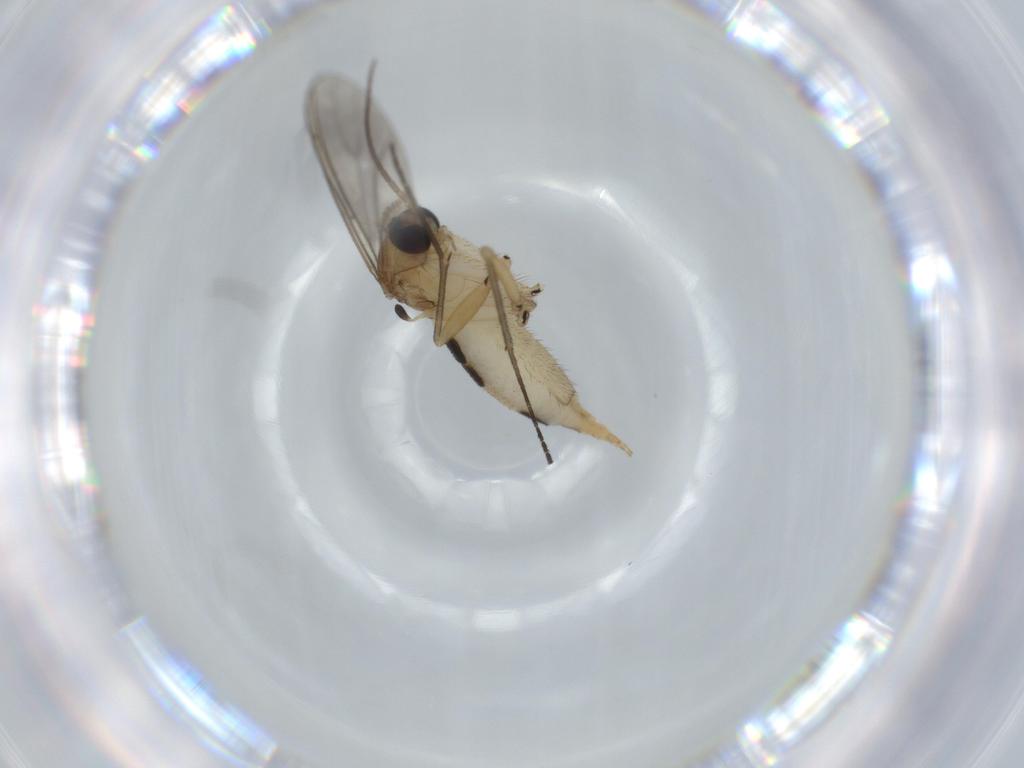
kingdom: Animalia
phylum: Arthropoda
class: Insecta
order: Diptera
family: Sciaridae
